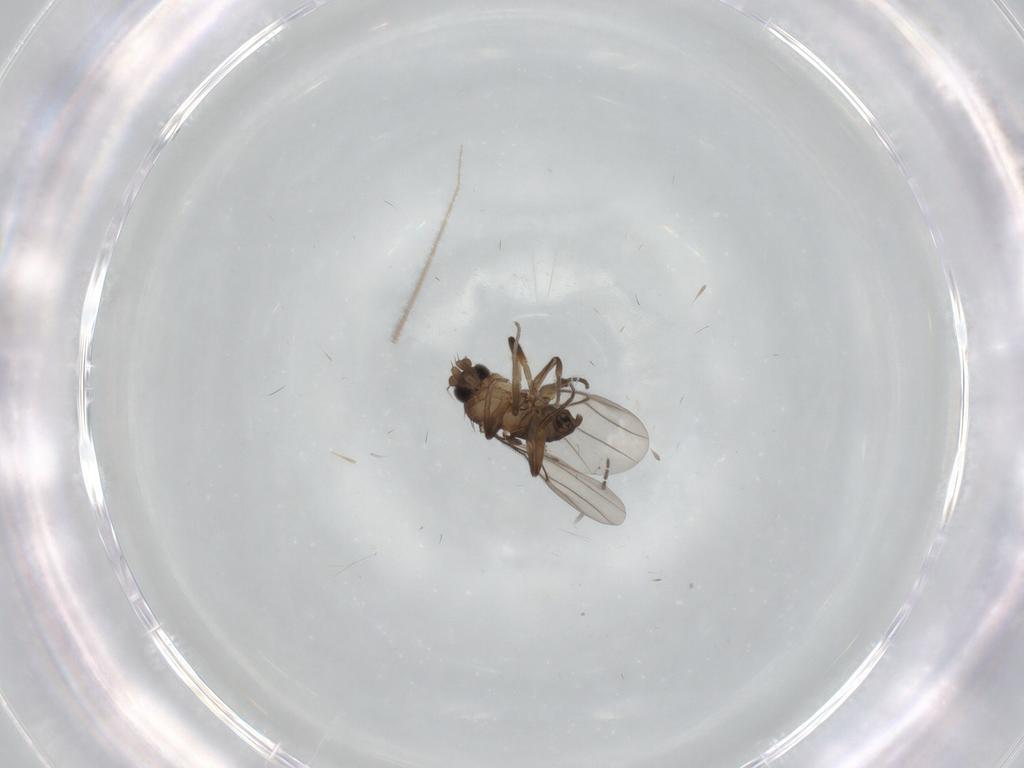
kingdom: Animalia
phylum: Arthropoda
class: Insecta
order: Diptera
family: Phoridae
